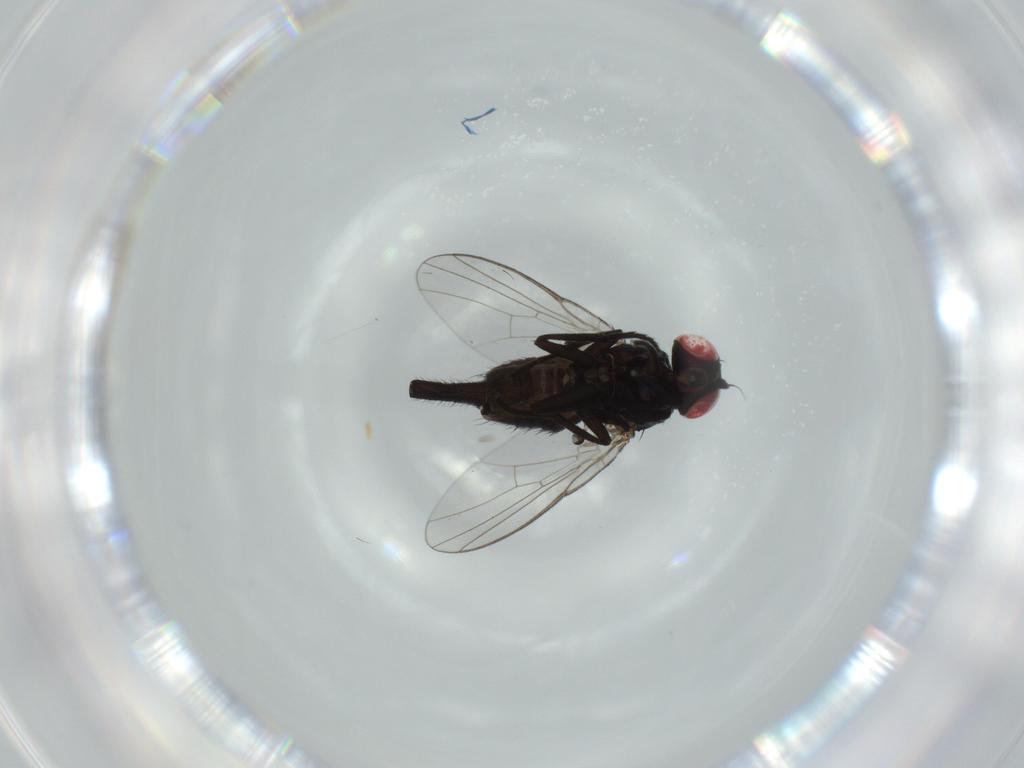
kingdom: Animalia
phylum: Arthropoda
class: Insecta
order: Diptera
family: Agromyzidae
